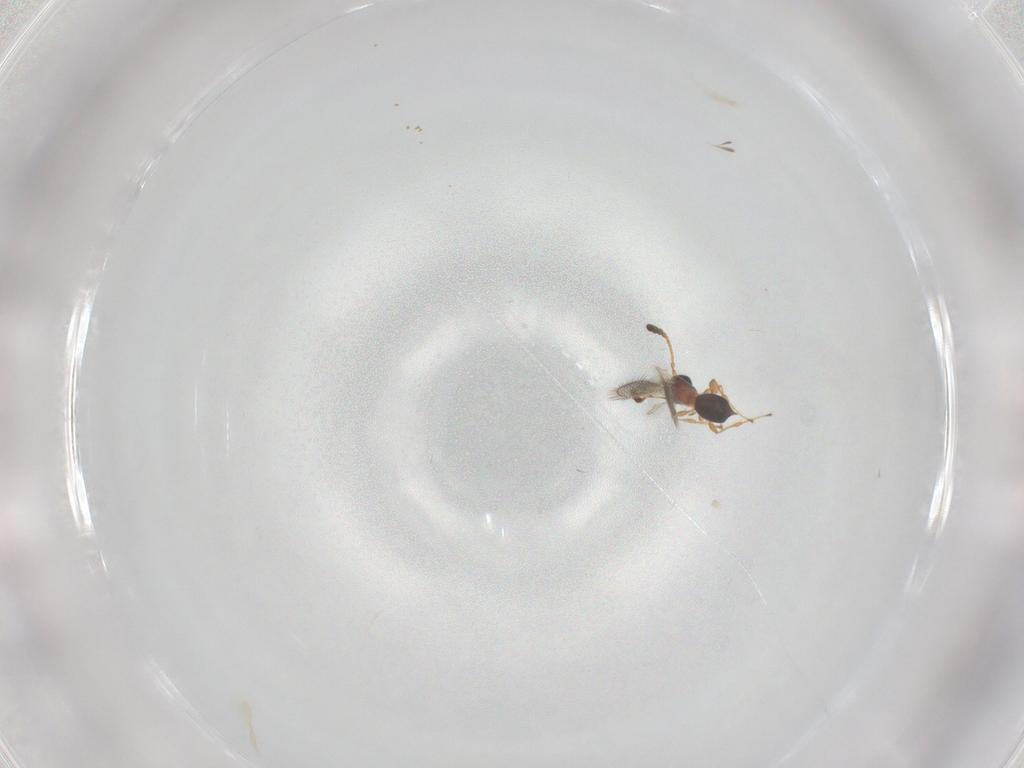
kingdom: Animalia
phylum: Arthropoda
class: Insecta
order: Hymenoptera
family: Diapriidae
